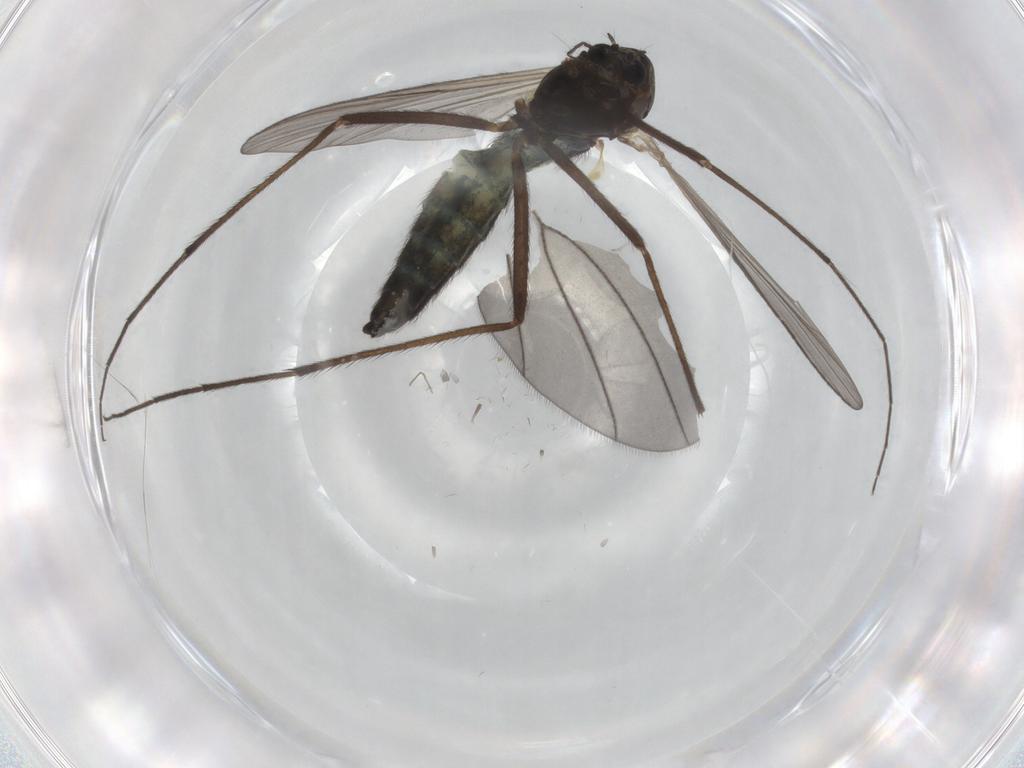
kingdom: Animalia
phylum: Arthropoda
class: Insecta
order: Diptera
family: Chironomidae
